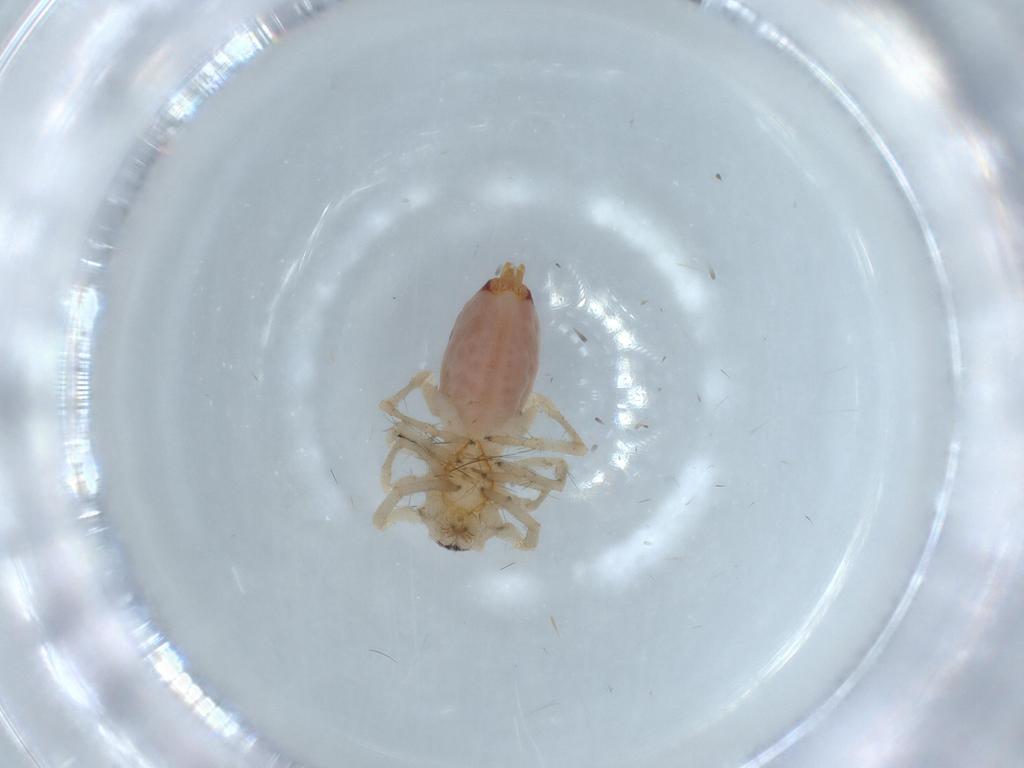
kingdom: Animalia
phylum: Arthropoda
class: Arachnida
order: Araneae
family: Clubionidae
